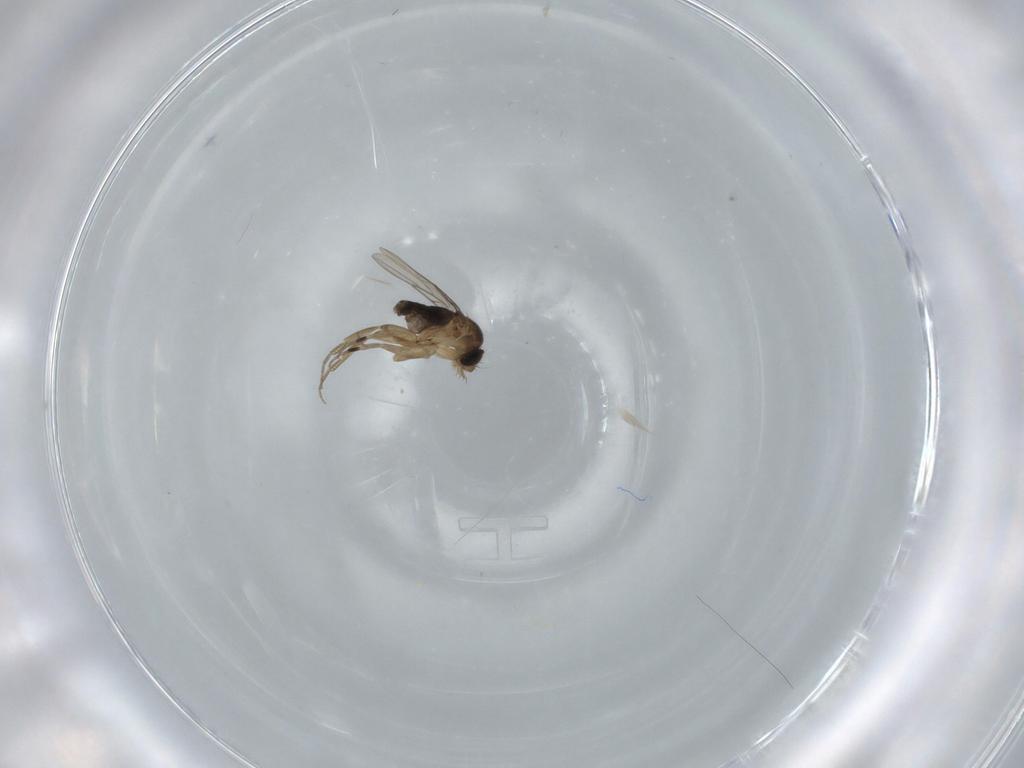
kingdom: Animalia
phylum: Arthropoda
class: Insecta
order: Diptera
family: Phoridae
